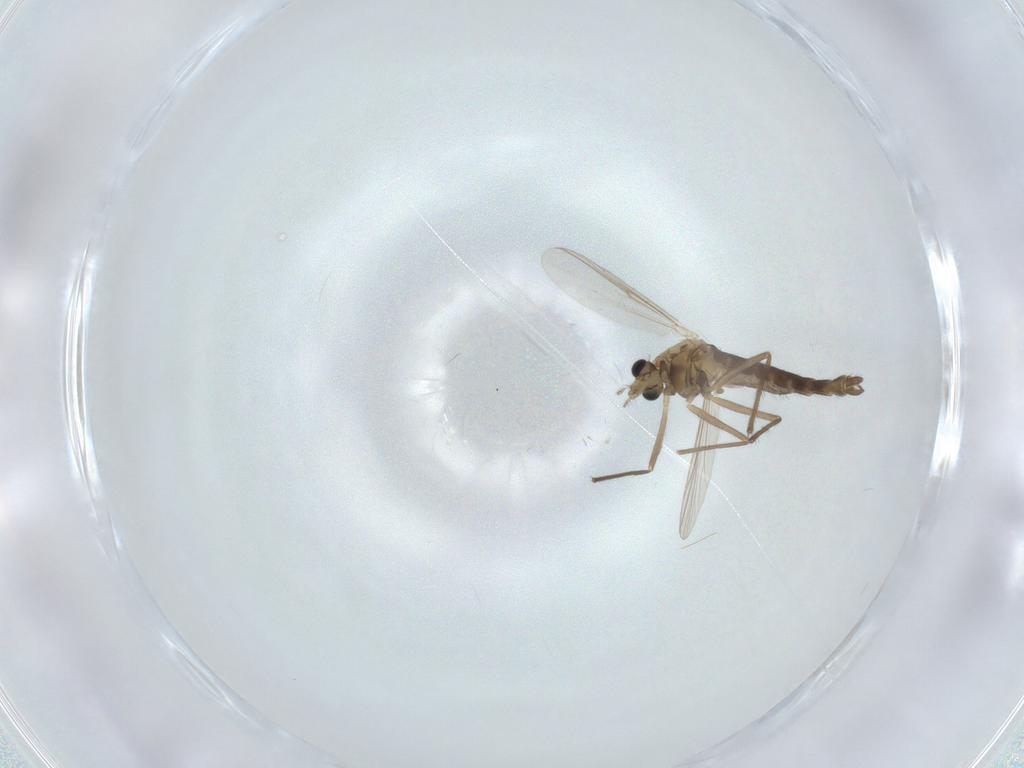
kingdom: Animalia
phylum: Arthropoda
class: Insecta
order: Diptera
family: Chironomidae
